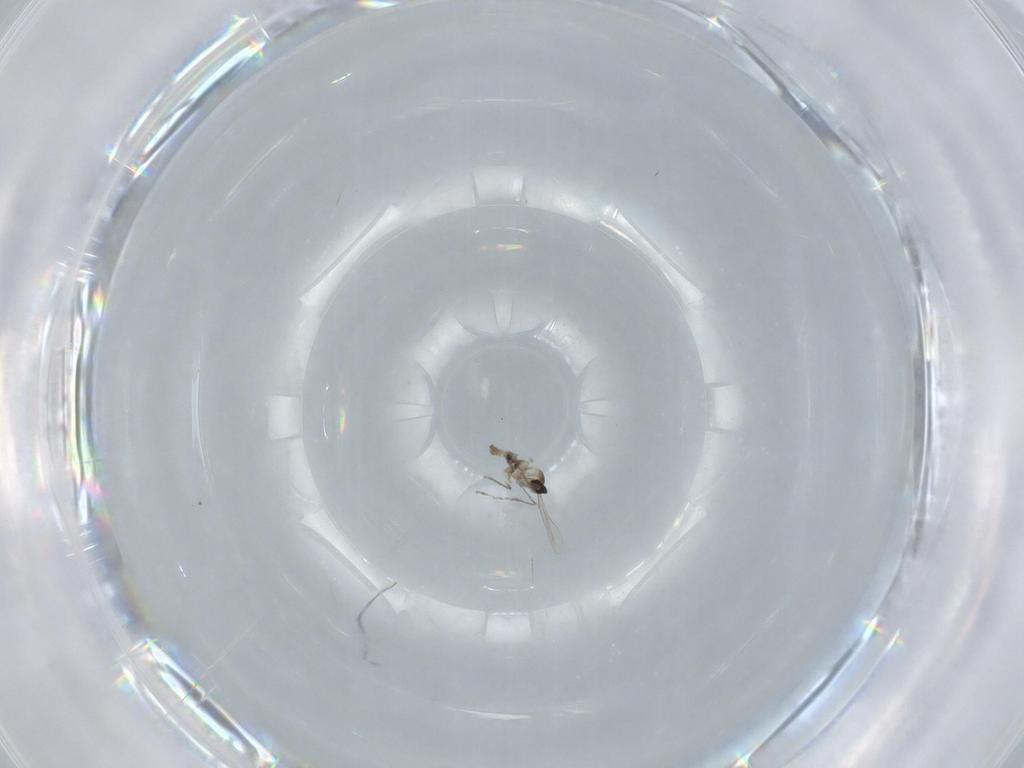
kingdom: Animalia
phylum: Arthropoda
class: Insecta
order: Diptera
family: Cecidomyiidae
